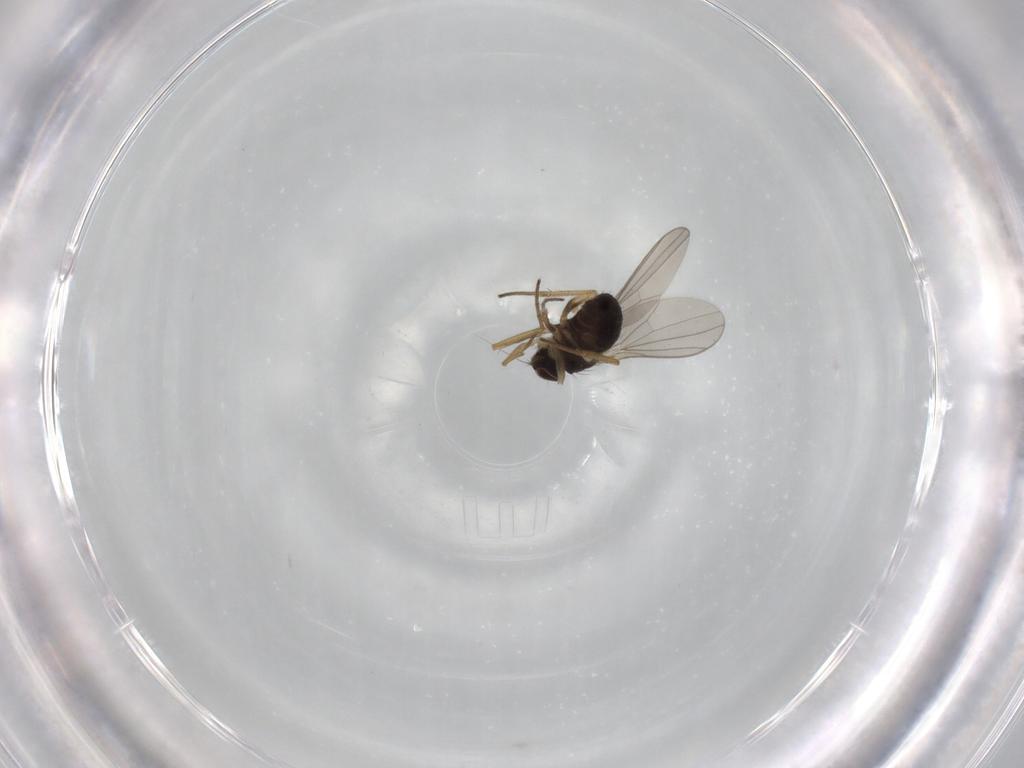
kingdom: Animalia
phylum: Arthropoda
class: Insecta
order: Diptera
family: Dolichopodidae
